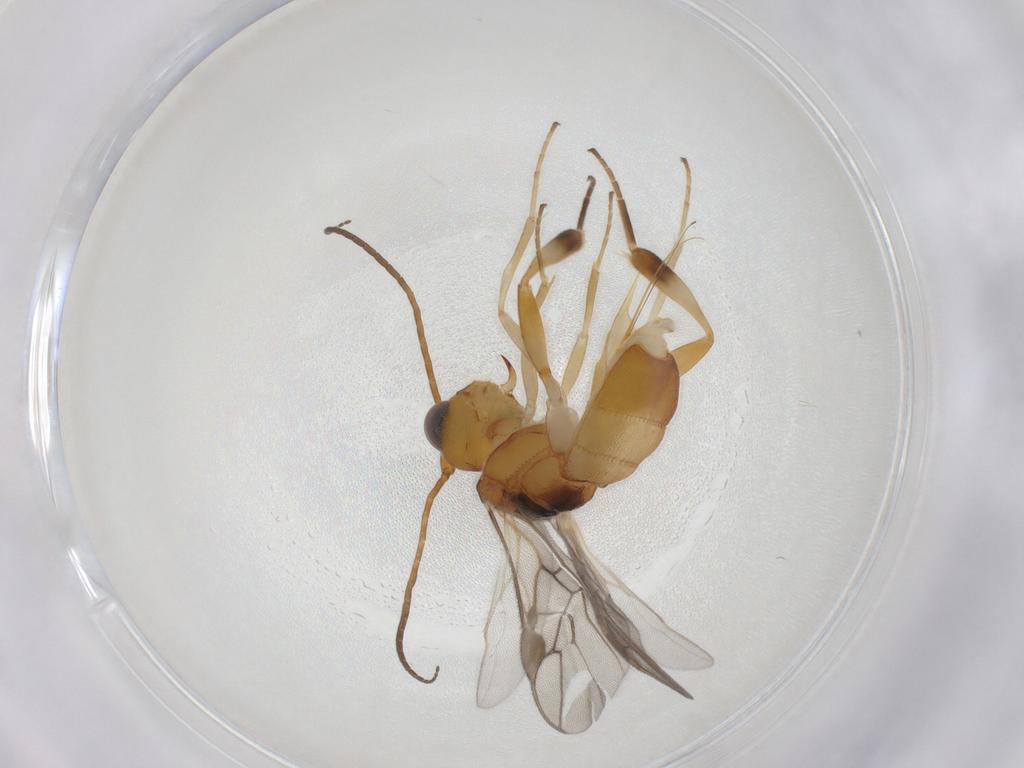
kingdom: Animalia
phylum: Arthropoda
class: Insecta
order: Hymenoptera
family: Braconidae
